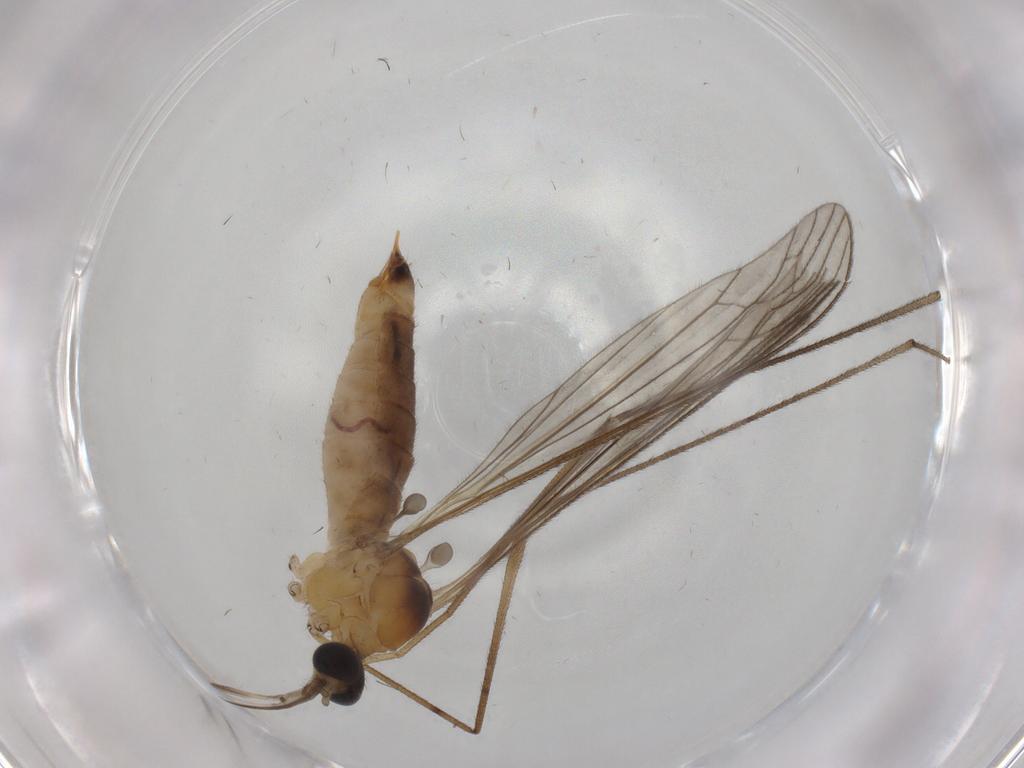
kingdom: Animalia
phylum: Arthropoda
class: Insecta
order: Diptera
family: Limoniidae
